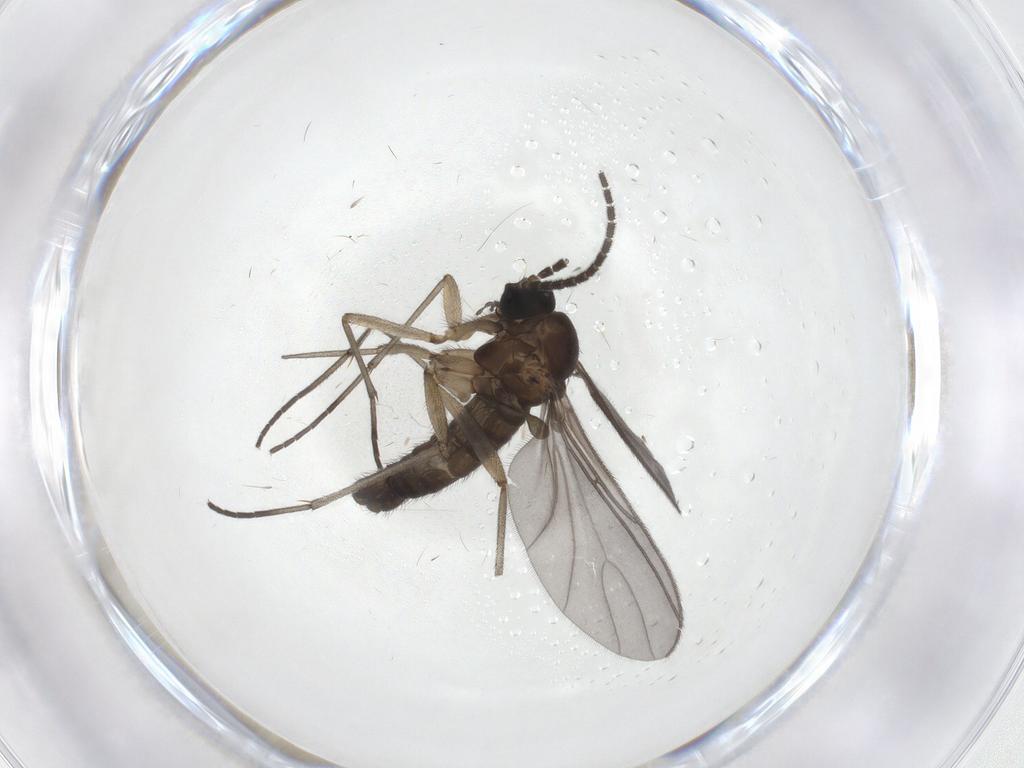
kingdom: Animalia
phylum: Arthropoda
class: Insecta
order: Diptera
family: Sciaridae
